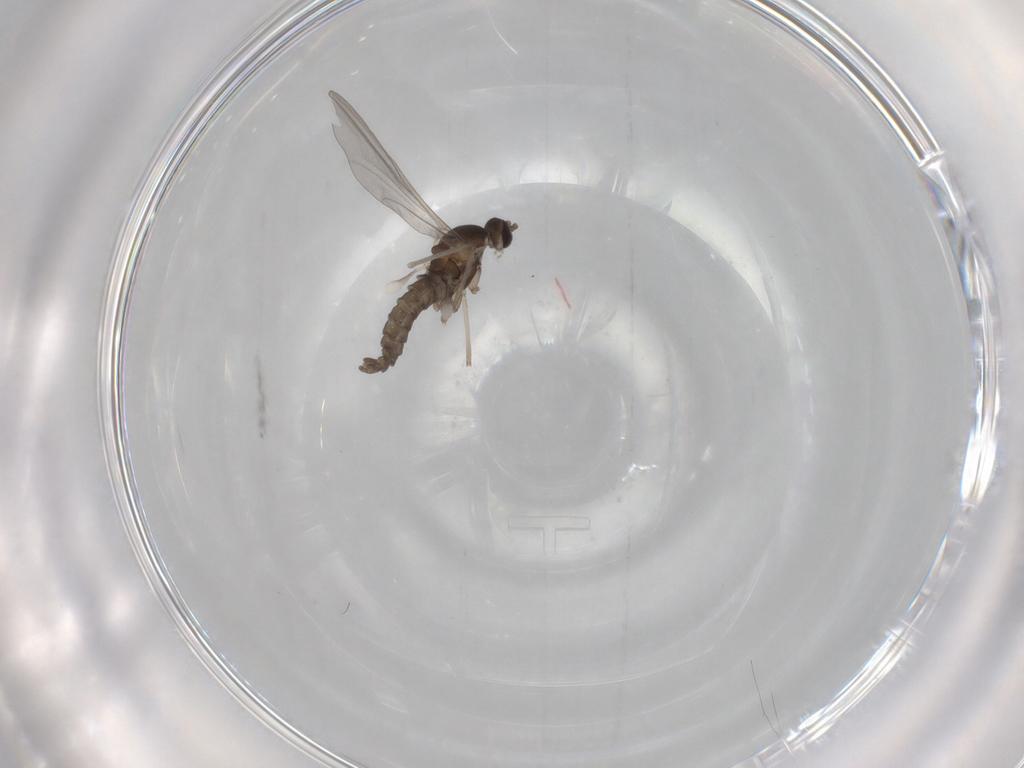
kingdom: Animalia
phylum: Arthropoda
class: Insecta
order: Diptera
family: Cecidomyiidae
